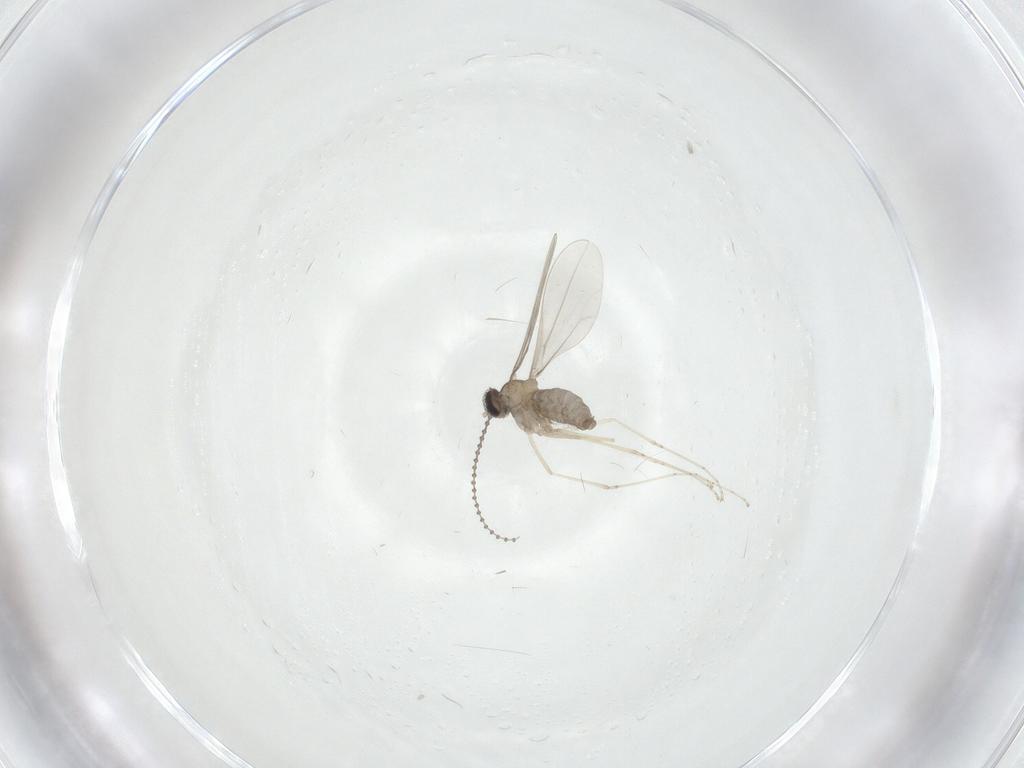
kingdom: Animalia
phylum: Arthropoda
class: Insecta
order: Diptera
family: Cecidomyiidae
